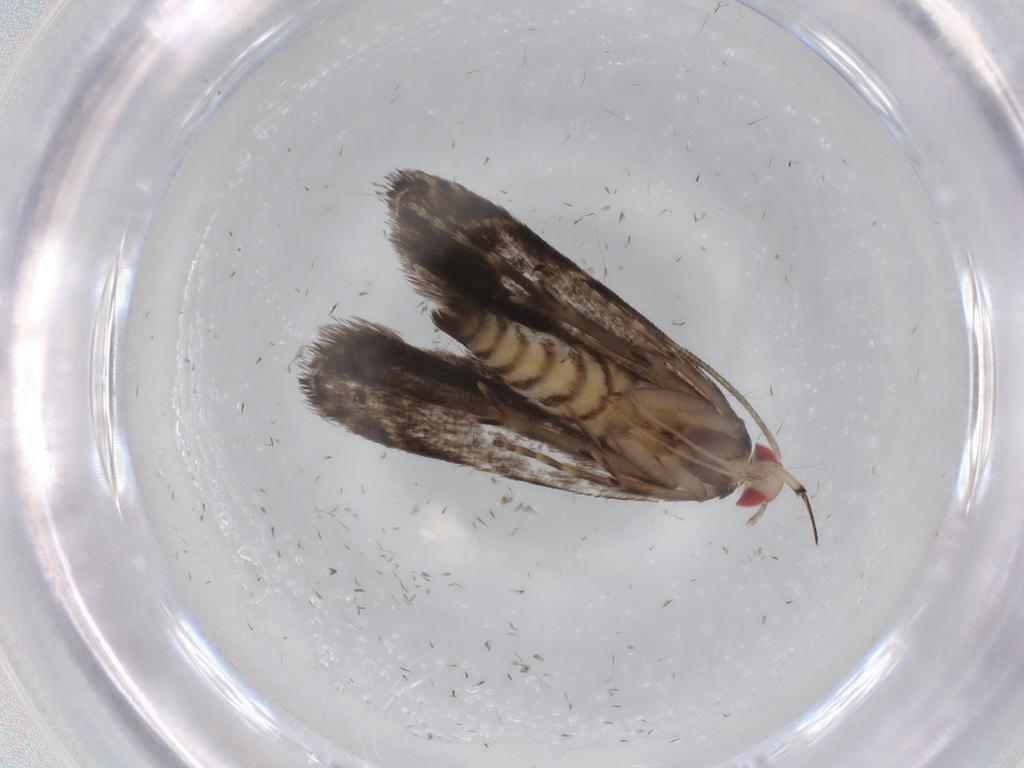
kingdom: Animalia
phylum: Arthropoda
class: Insecta
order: Lepidoptera
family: Gelechiidae
